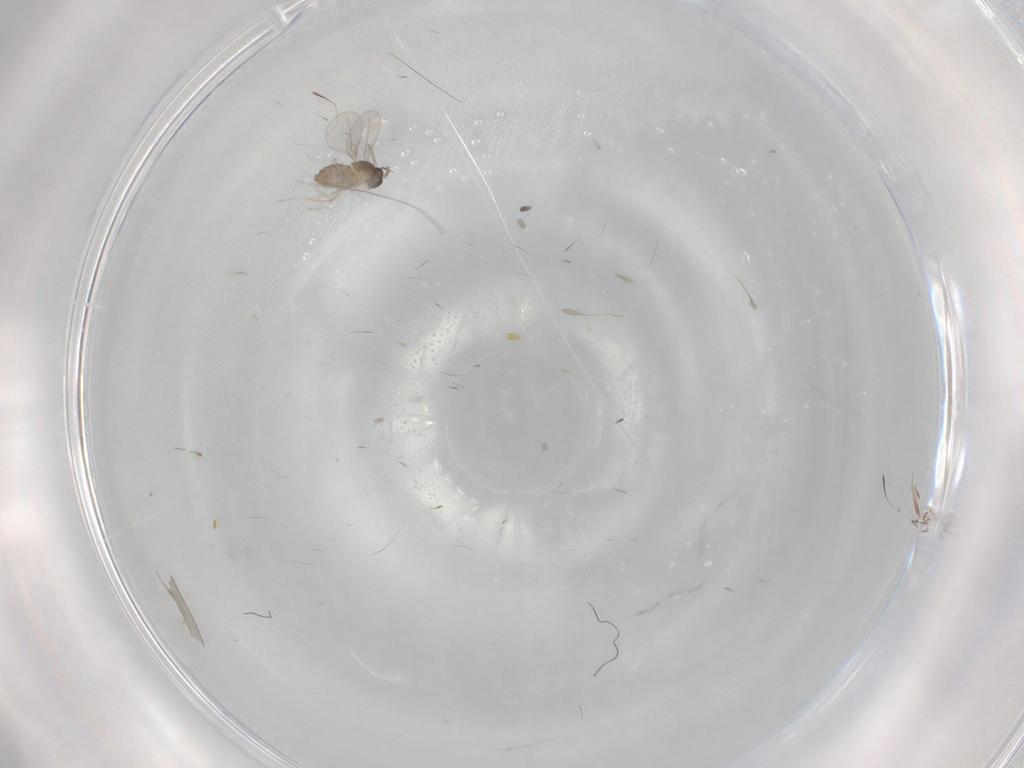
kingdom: Animalia
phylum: Arthropoda
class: Insecta
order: Diptera
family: Cecidomyiidae
